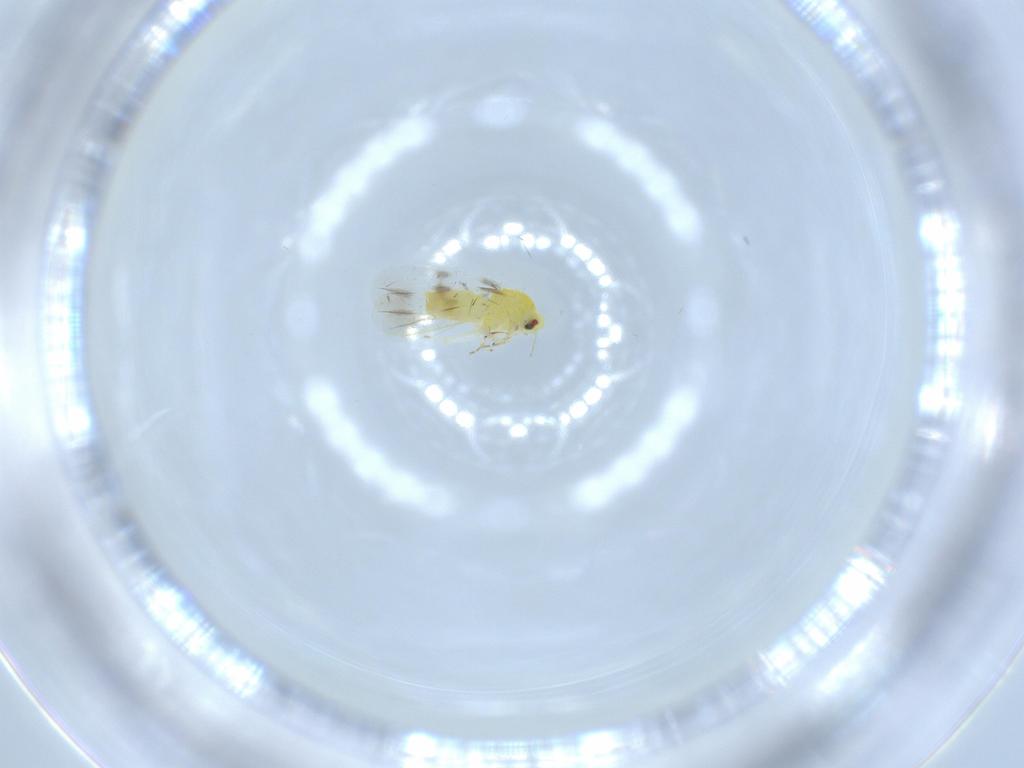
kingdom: Animalia
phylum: Arthropoda
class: Insecta
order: Hemiptera
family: Aleyrodidae
